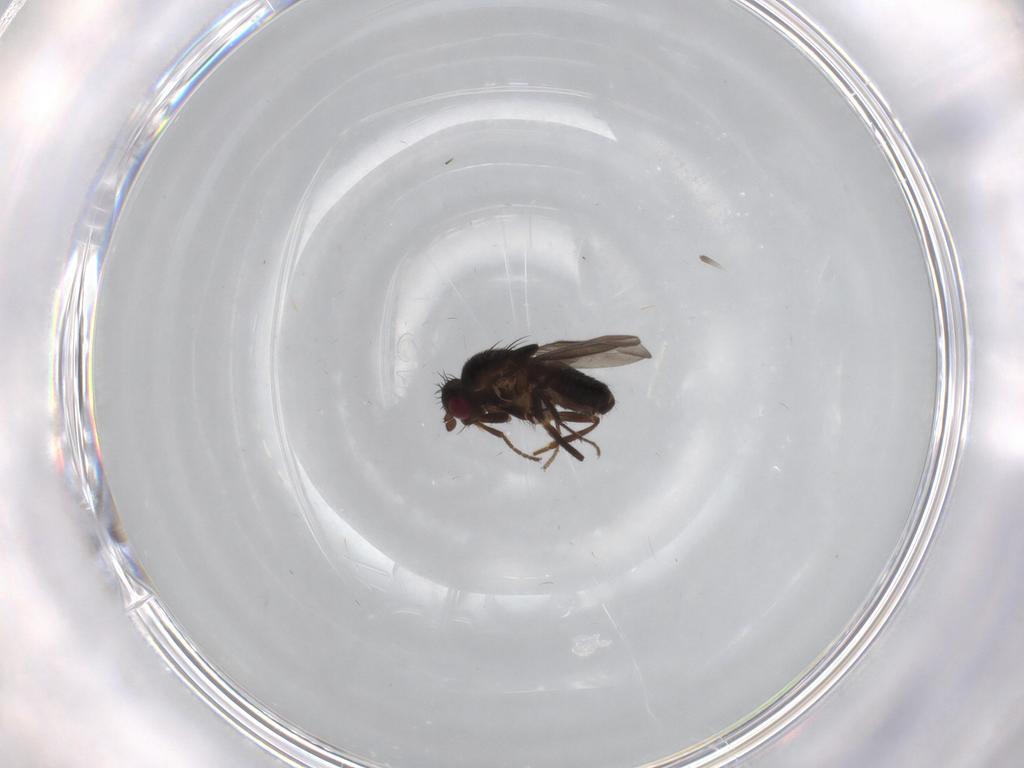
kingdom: Animalia
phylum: Arthropoda
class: Insecta
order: Diptera
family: Cecidomyiidae
